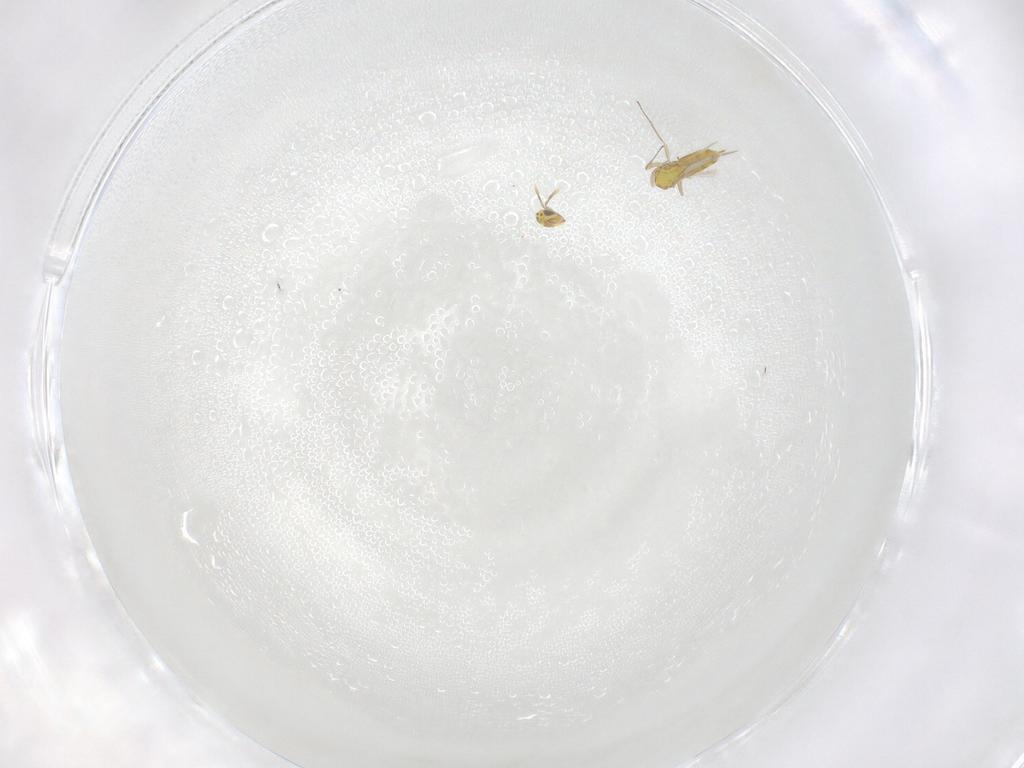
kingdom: Animalia
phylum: Arthropoda
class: Insecta
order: Hymenoptera
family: Aphelinidae
